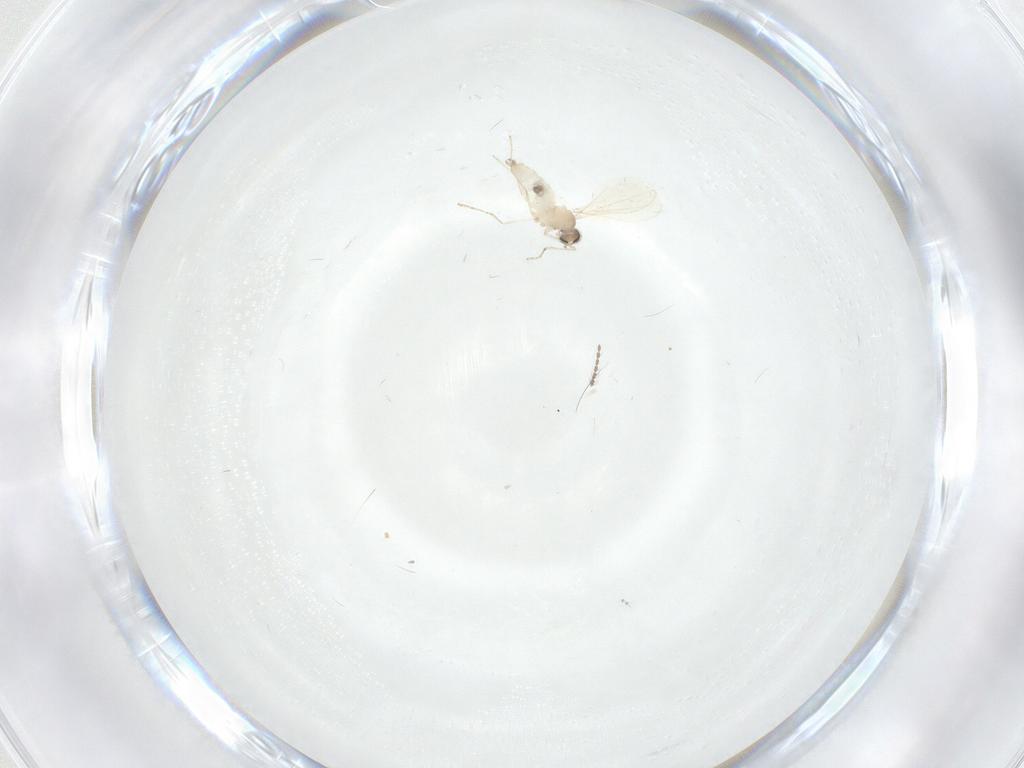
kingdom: Animalia
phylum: Arthropoda
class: Insecta
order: Diptera
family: Cecidomyiidae
